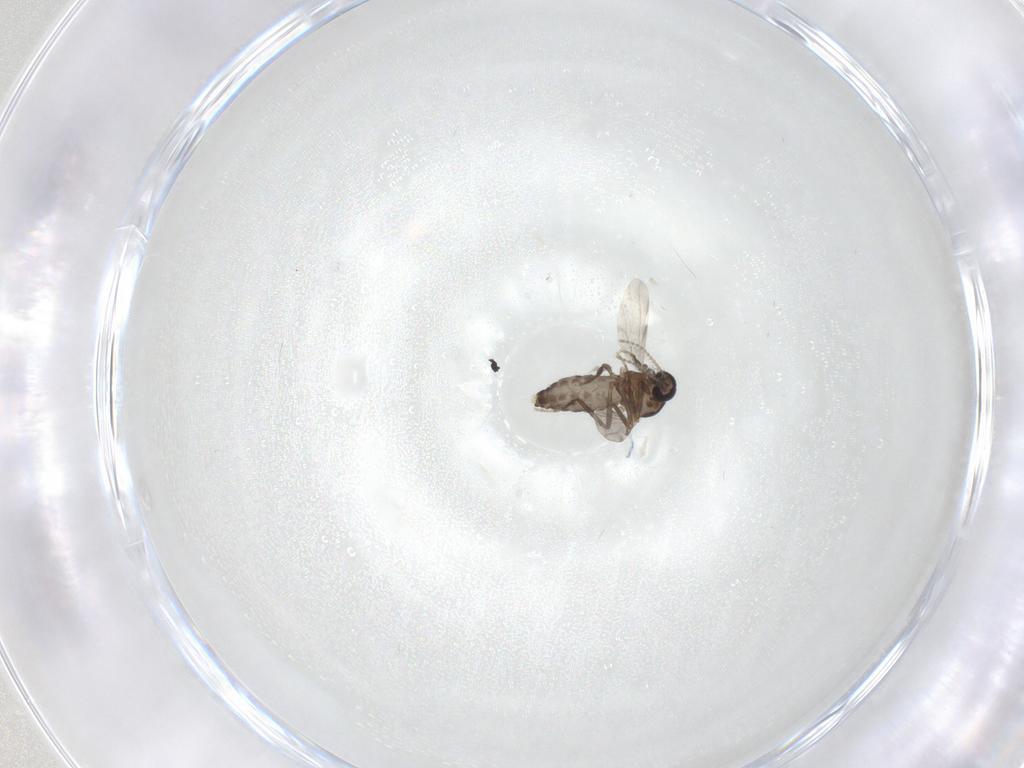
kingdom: Animalia
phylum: Arthropoda
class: Insecta
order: Diptera
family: Ceratopogonidae
